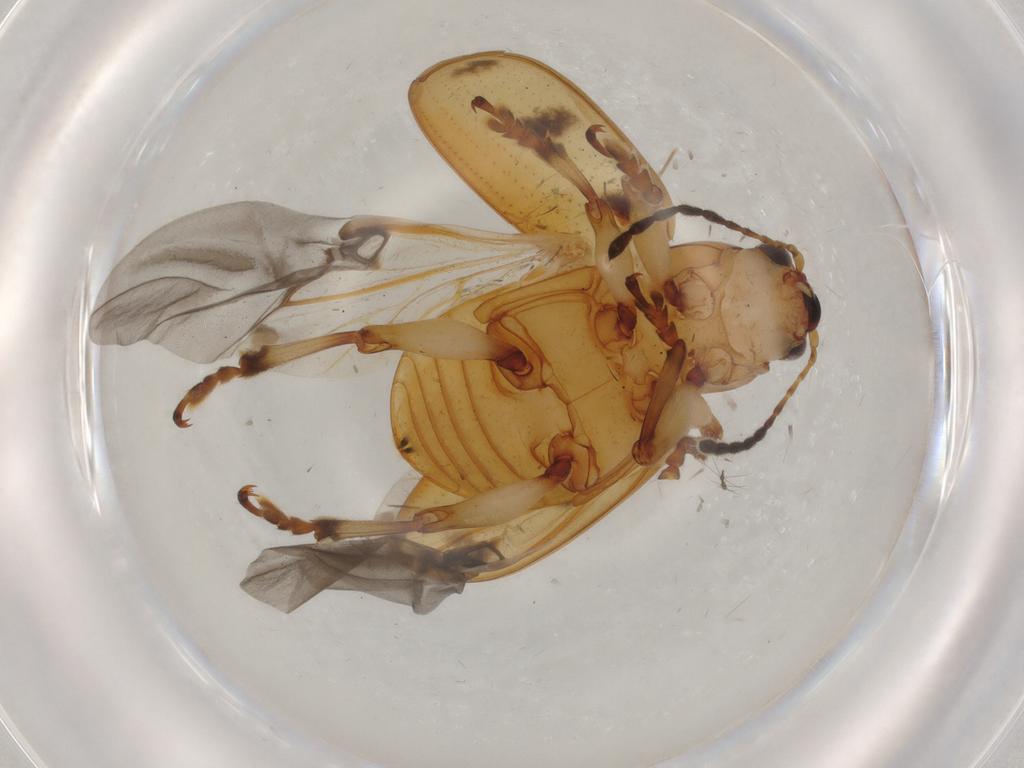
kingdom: Animalia
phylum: Arthropoda
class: Insecta
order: Coleoptera
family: Chrysomelidae
